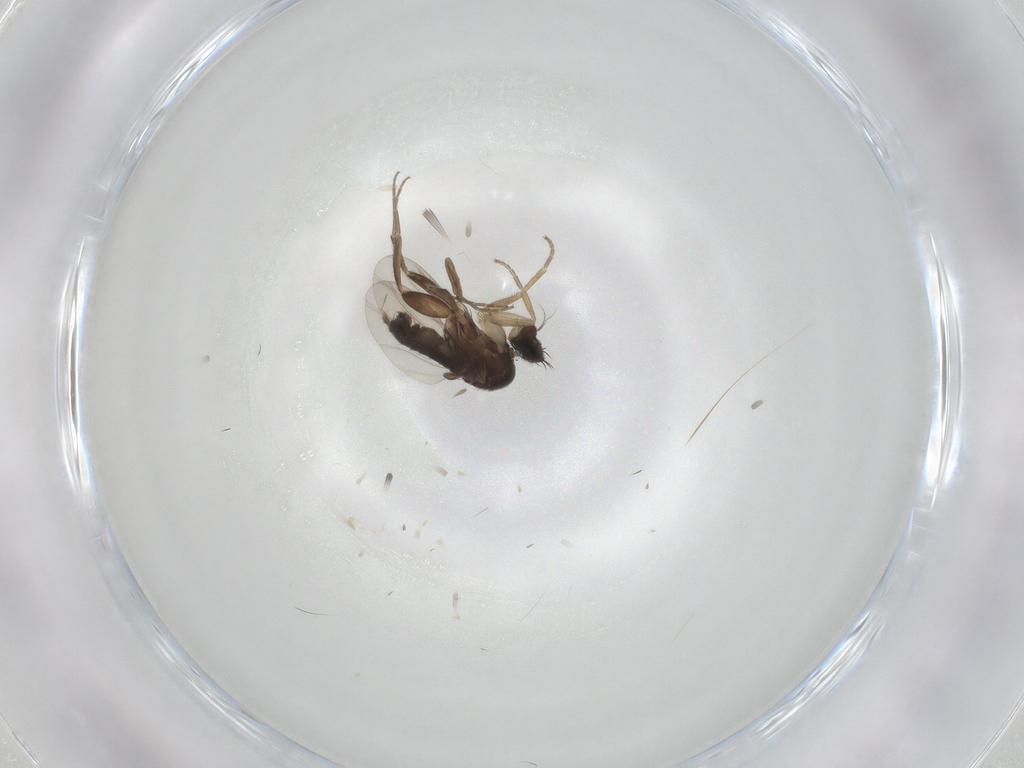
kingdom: Animalia
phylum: Arthropoda
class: Insecta
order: Diptera
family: Phoridae
